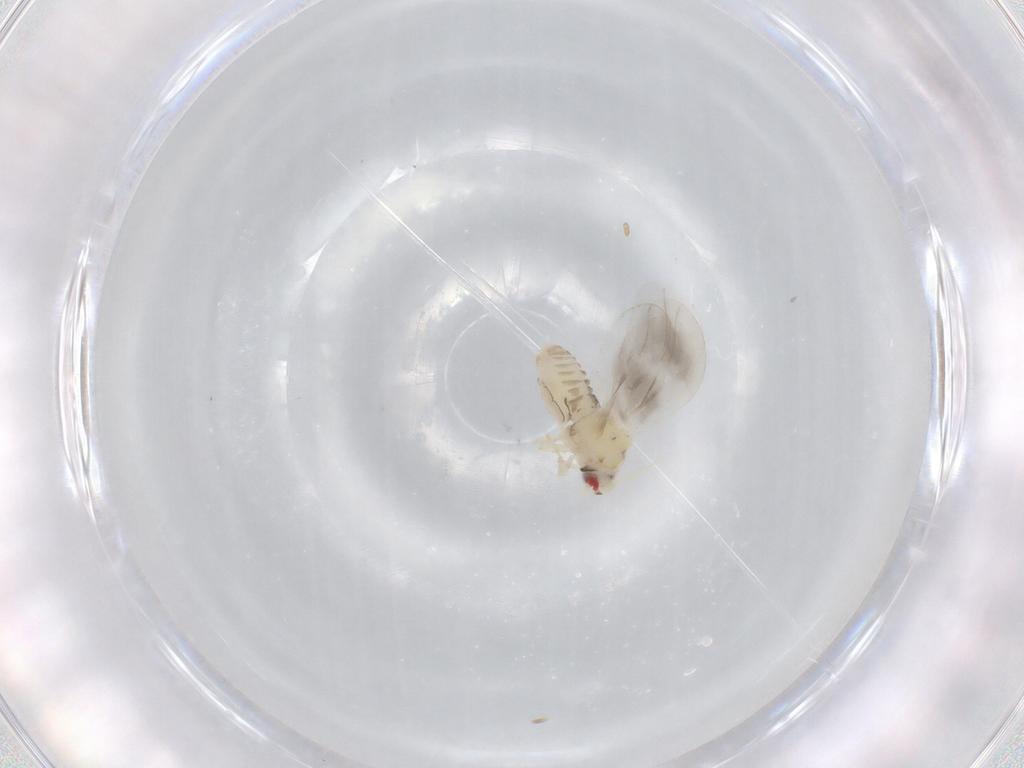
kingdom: Animalia
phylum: Arthropoda
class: Insecta
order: Hemiptera
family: Aleyrodidae
